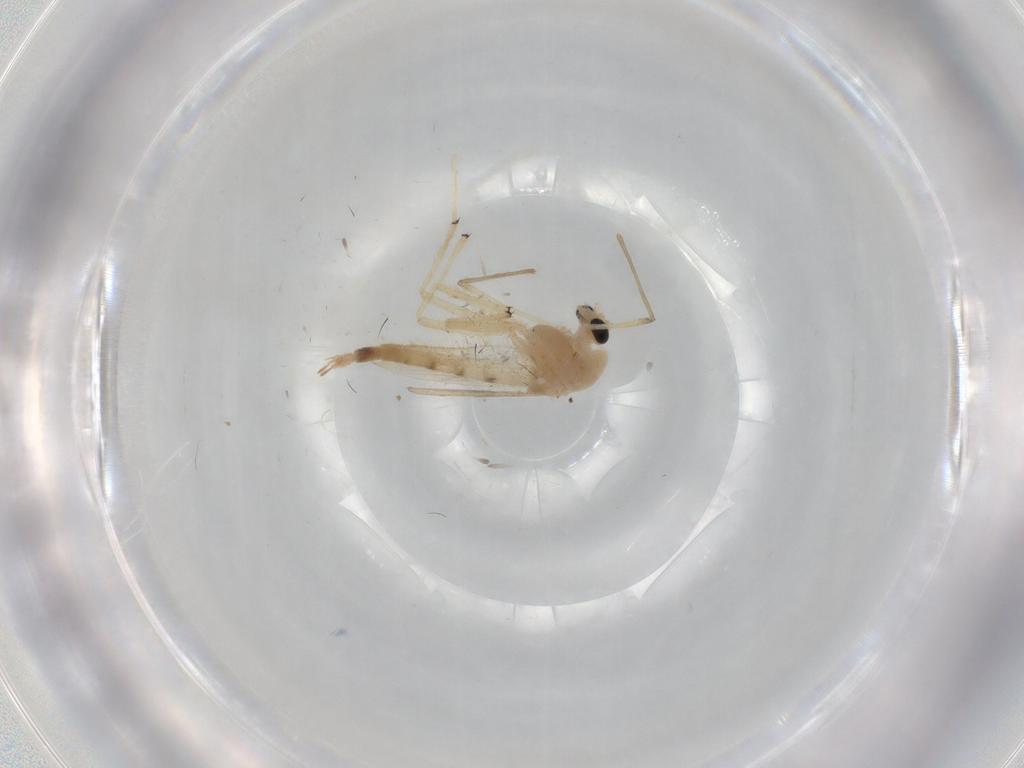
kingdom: Animalia
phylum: Arthropoda
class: Insecta
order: Diptera
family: Chironomidae
